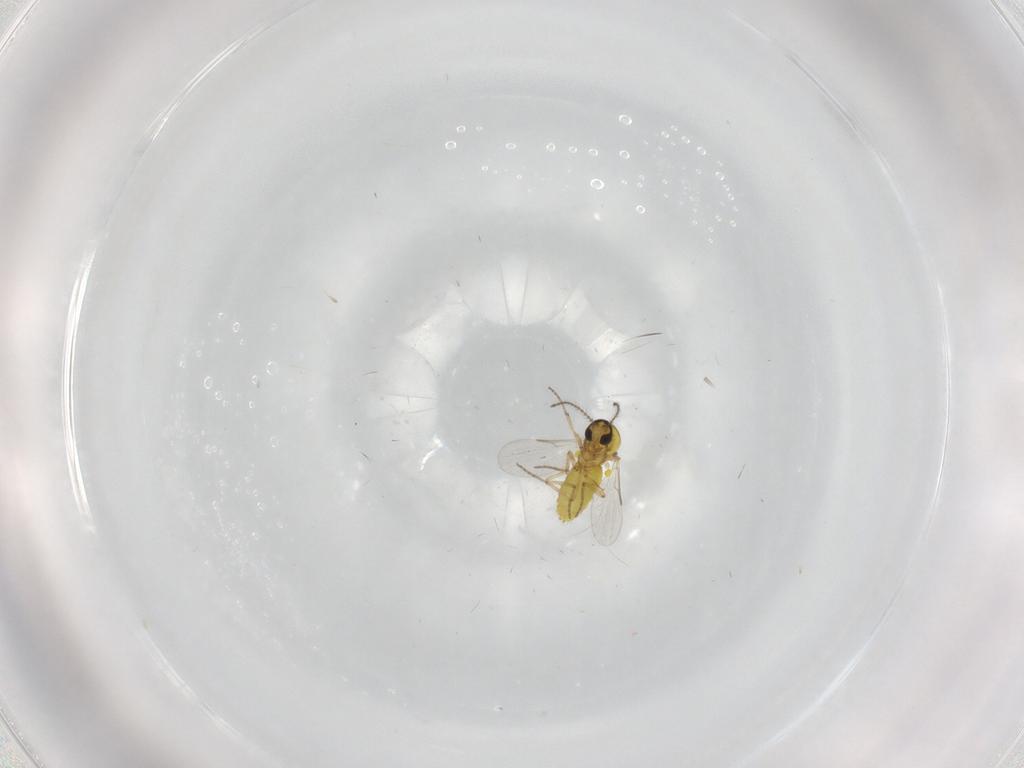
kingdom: Animalia
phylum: Arthropoda
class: Insecta
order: Diptera
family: Ceratopogonidae
